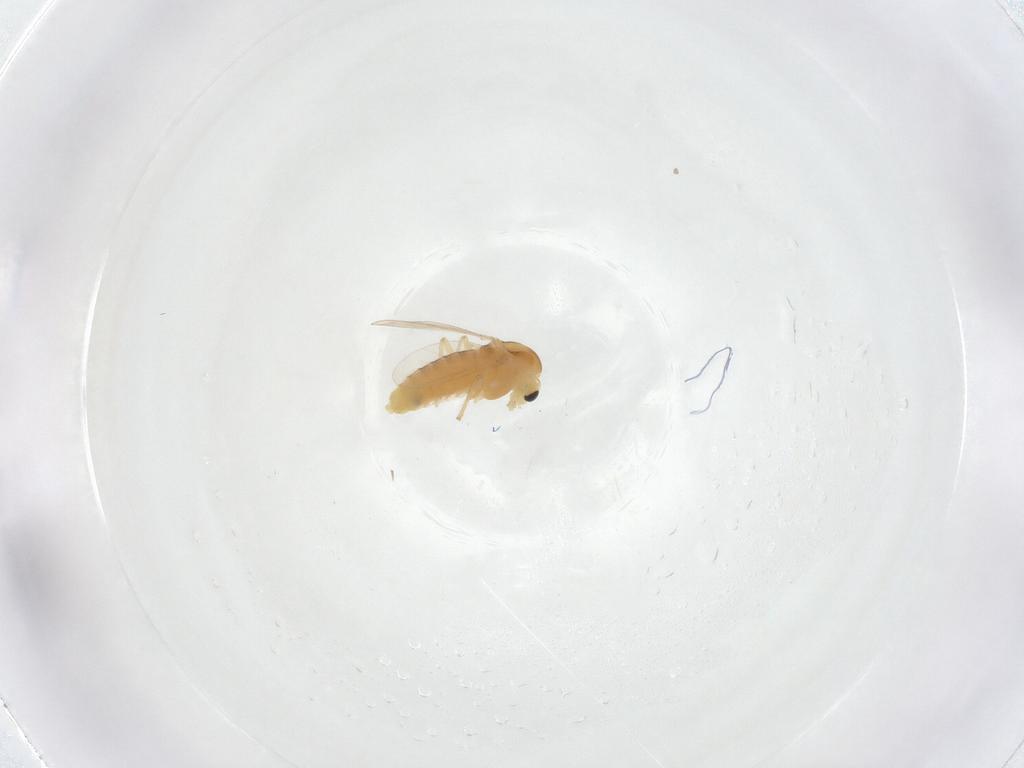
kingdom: Animalia
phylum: Arthropoda
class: Insecta
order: Diptera
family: Chironomidae
